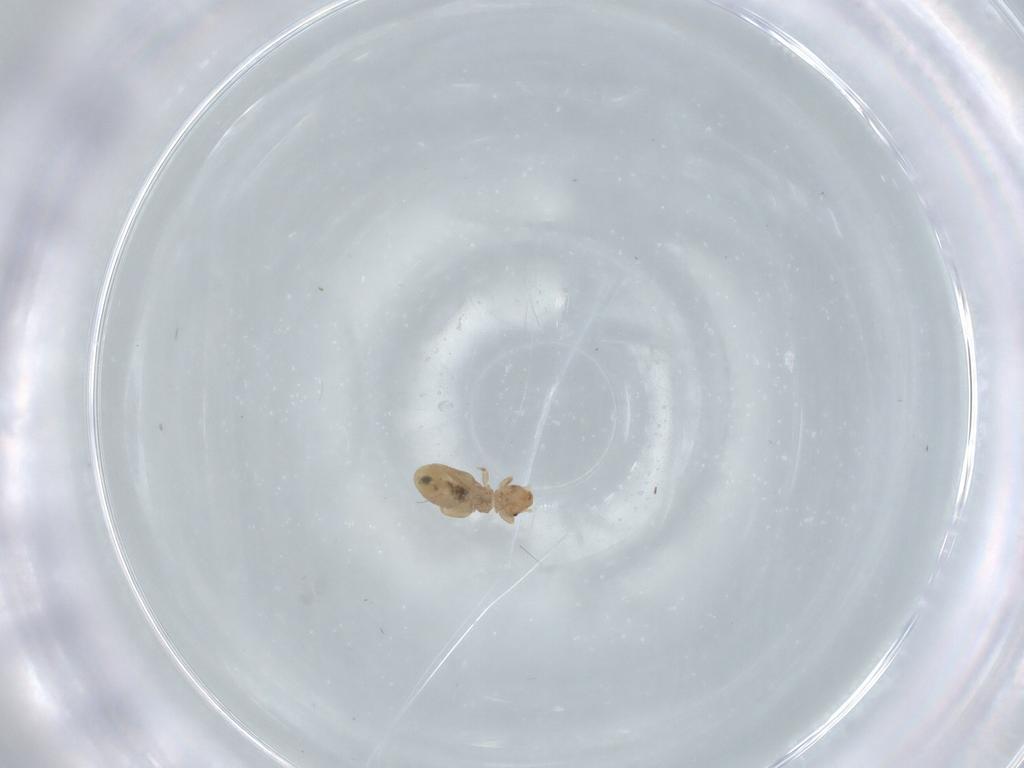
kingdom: Animalia
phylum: Arthropoda
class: Insecta
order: Psocodea
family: Liposcelididae
